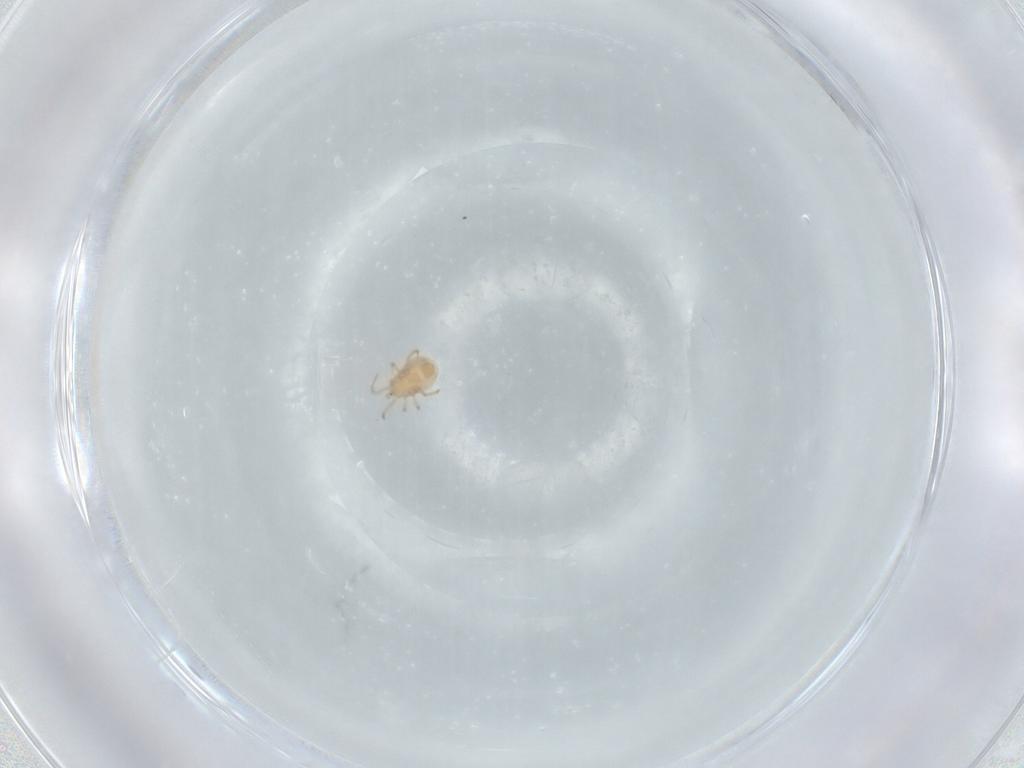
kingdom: Animalia
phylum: Arthropoda
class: Arachnida
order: Mesostigmata
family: Phytoseiidae
